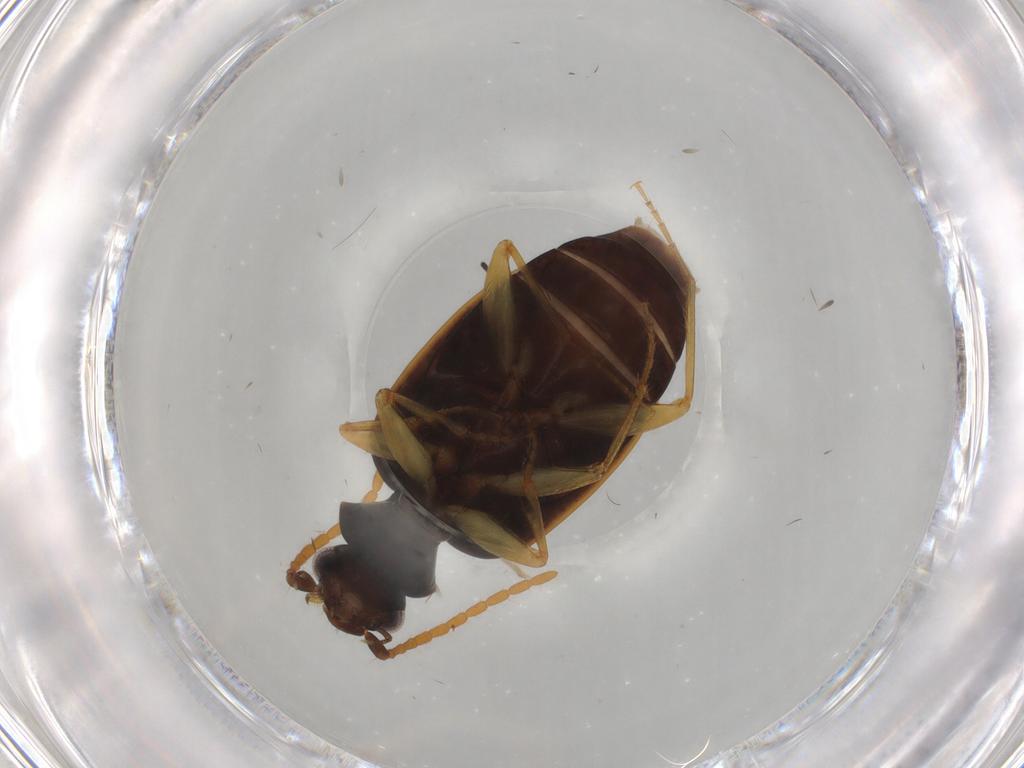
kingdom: Animalia
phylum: Arthropoda
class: Insecta
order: Coleoptera
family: Carabidae
